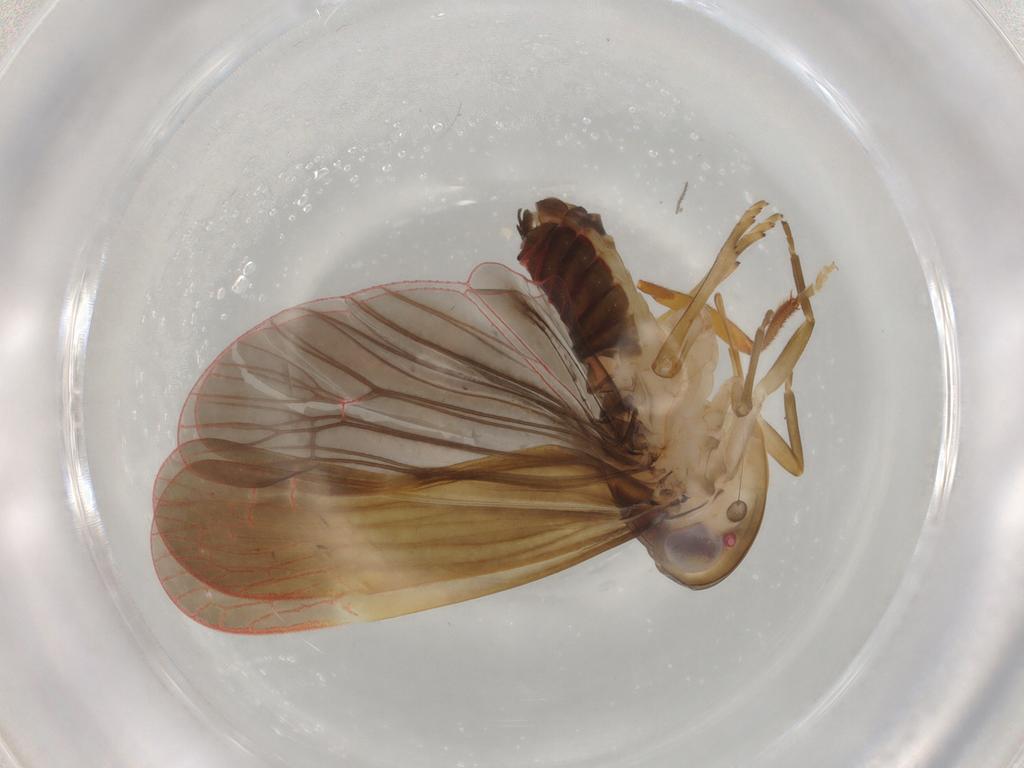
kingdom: Animalia
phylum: Arthropoda
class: Insecta
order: Hemiptera
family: Achilidae
